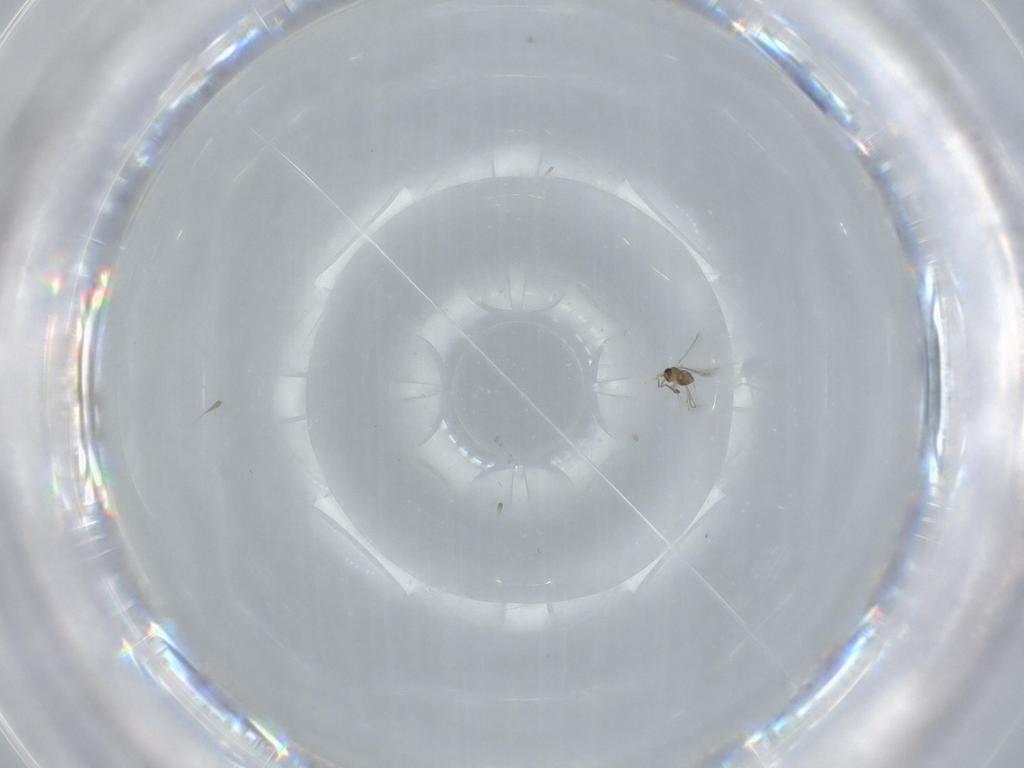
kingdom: Animalia
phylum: Arthropoda
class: Insecta
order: Hymenoptera
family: Mymaridae
